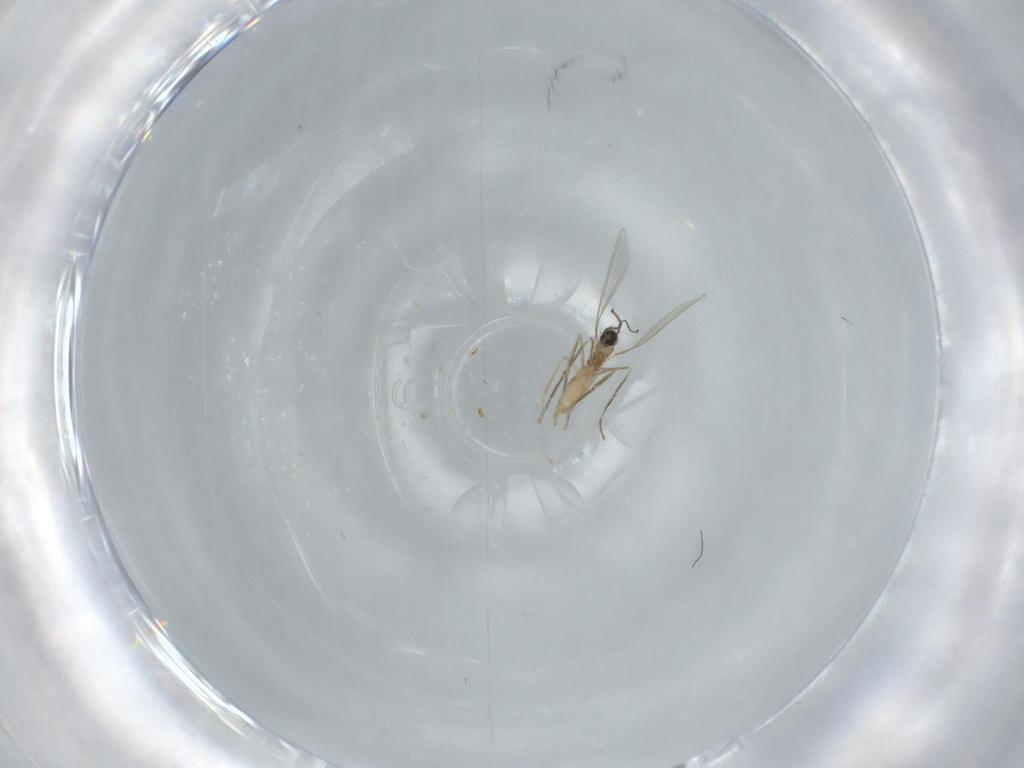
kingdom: Animalia
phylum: Arthropoda
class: Insecta
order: Diptera
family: Cecidomyiidae
